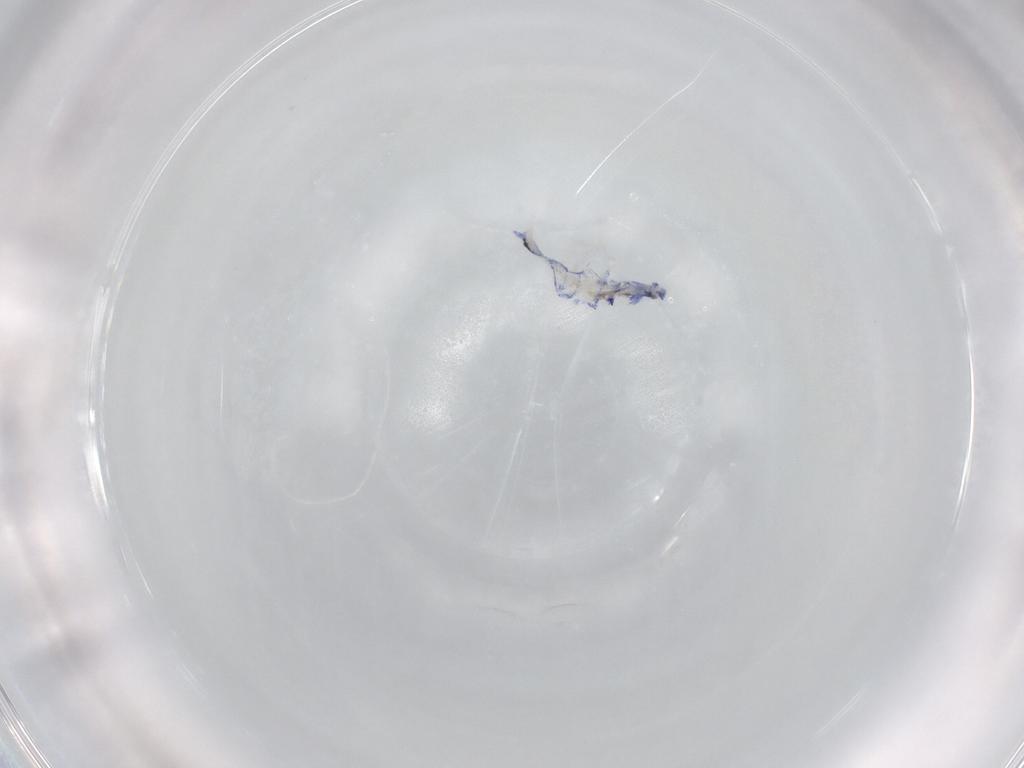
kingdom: Animalia
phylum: Arthropoda
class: Collembola
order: Entomobryomorpha
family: Entomobryidae
